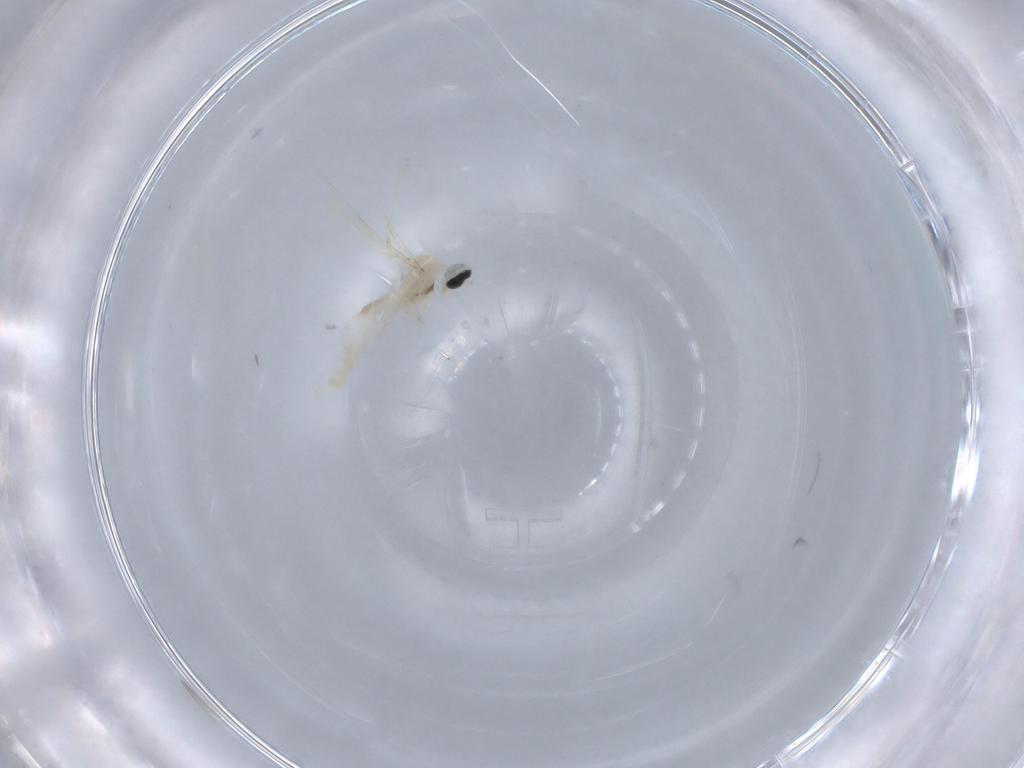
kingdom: Animalia
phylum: Arthropoda
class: Insecta
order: Diptera
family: Cecidomyiidae
